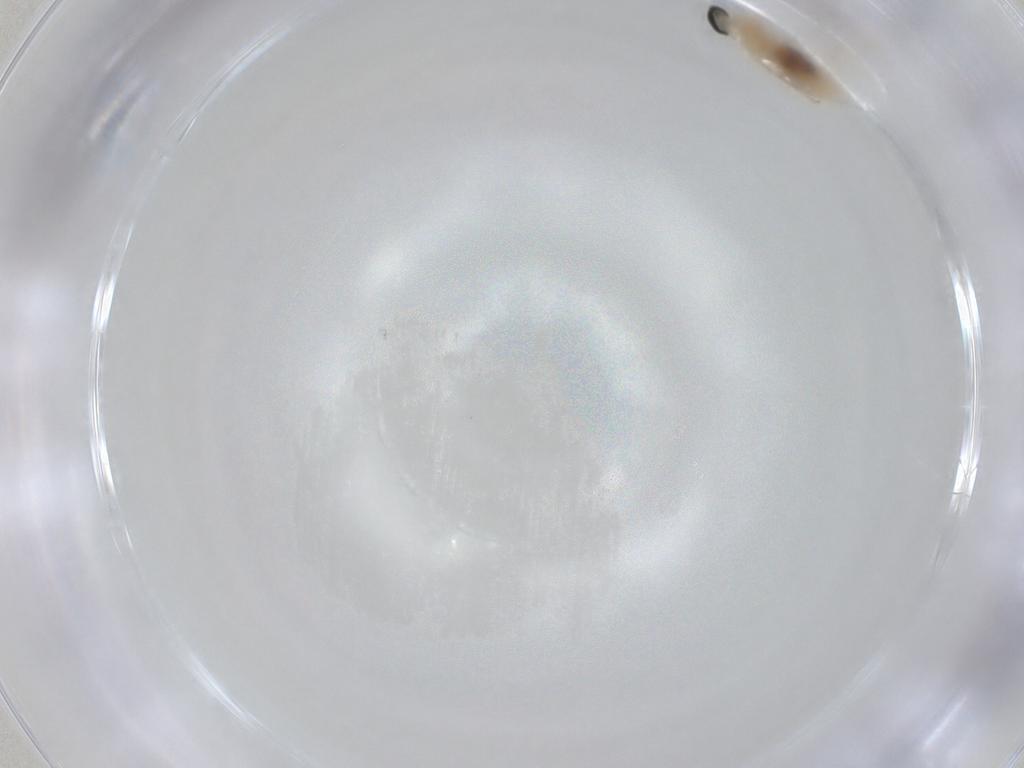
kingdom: Animalia
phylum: Arthropoda
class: Insecta
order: Diptera
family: Cecidomyiidae
